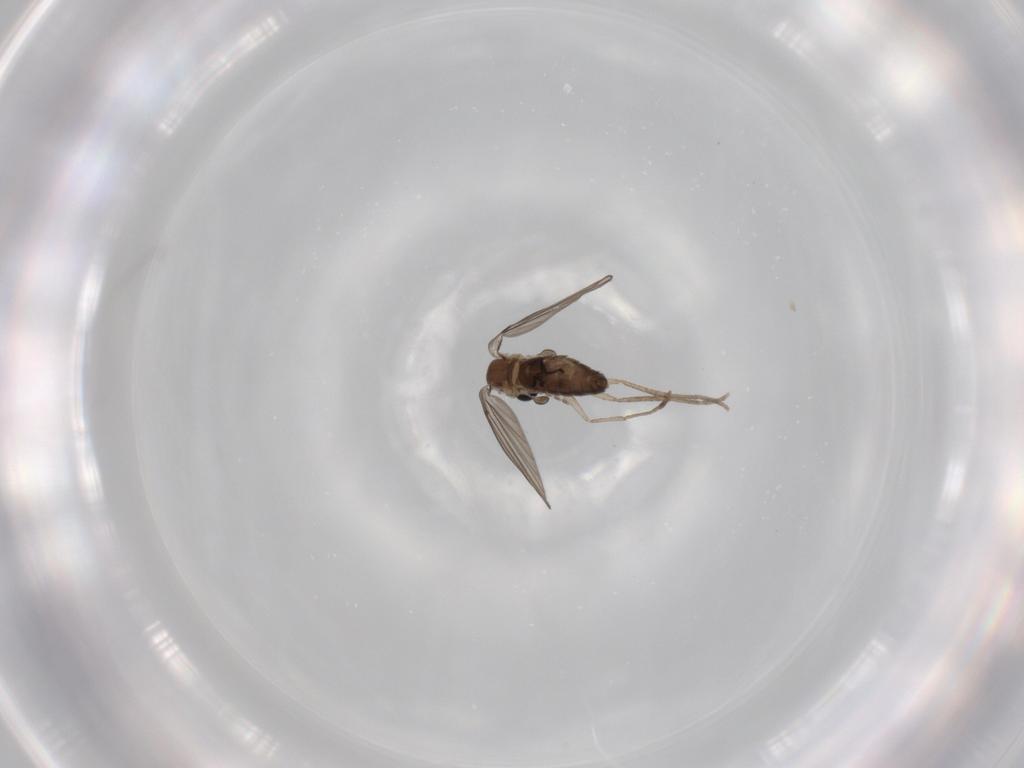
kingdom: Animalia
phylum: Arthropoda
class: Insecta
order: Diptera
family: Psychodidae
